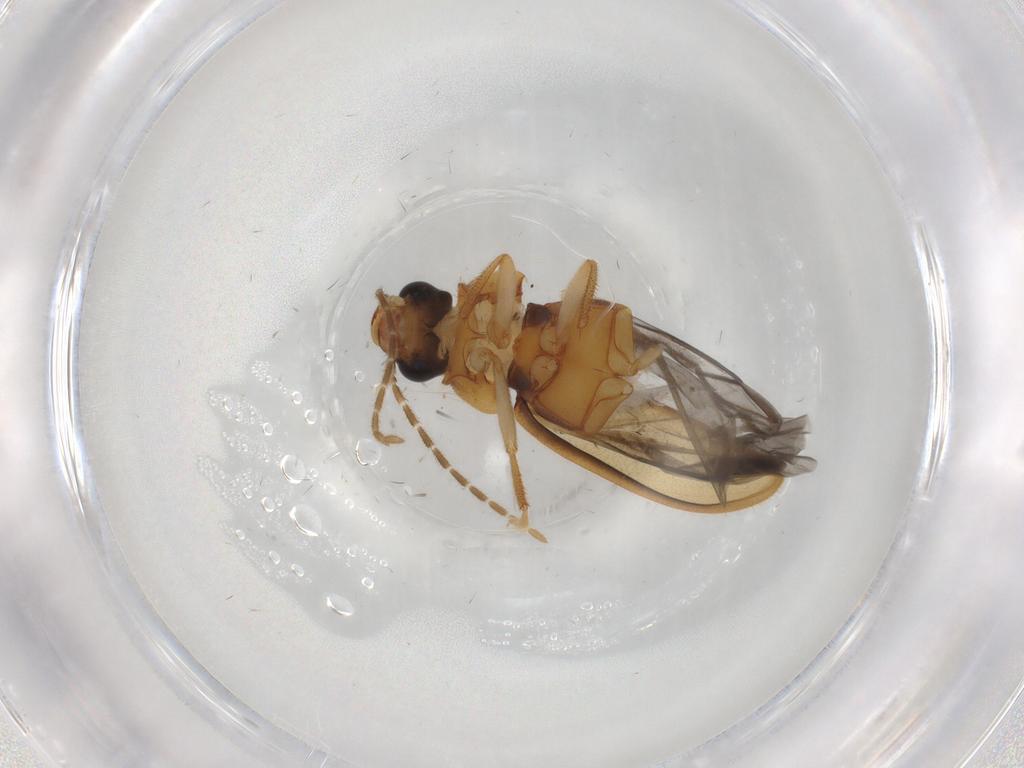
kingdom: Animalia
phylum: Arthropoda
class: Insecta
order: Coleoptera
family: Ptilodactylidae
